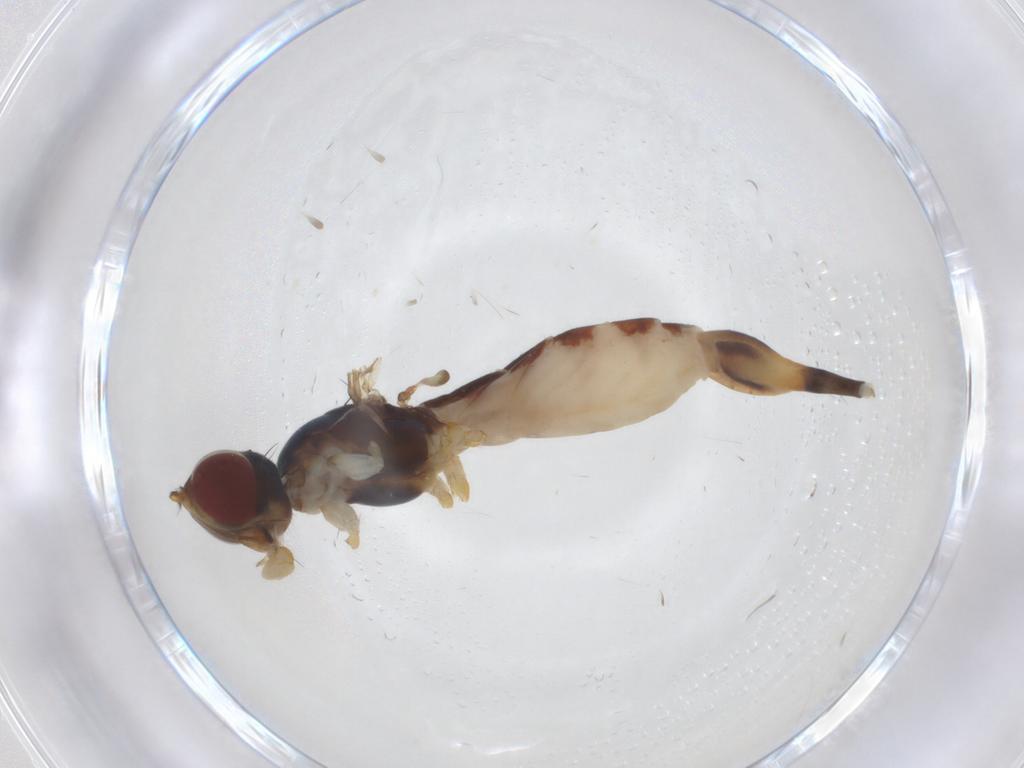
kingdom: Animalia
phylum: Arthropoda
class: Insecta
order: Diptera
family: Micropezidae
